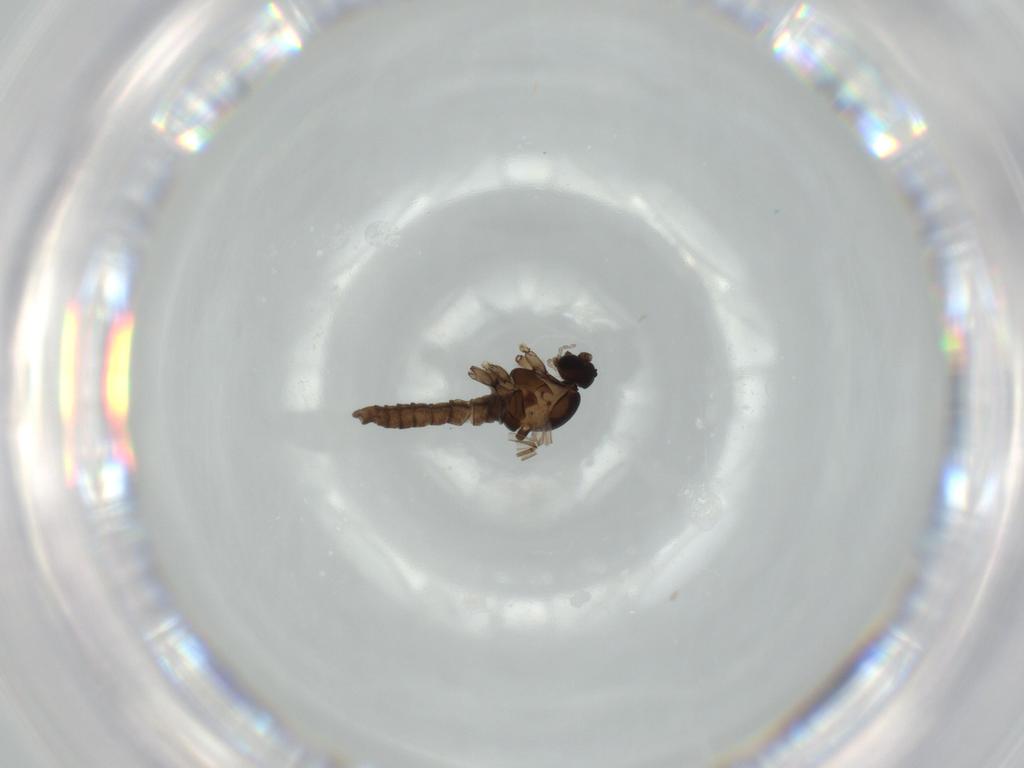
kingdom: Animalia
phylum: Arthropoda
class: Insecta
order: Diptera
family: Cecidomyiidae
